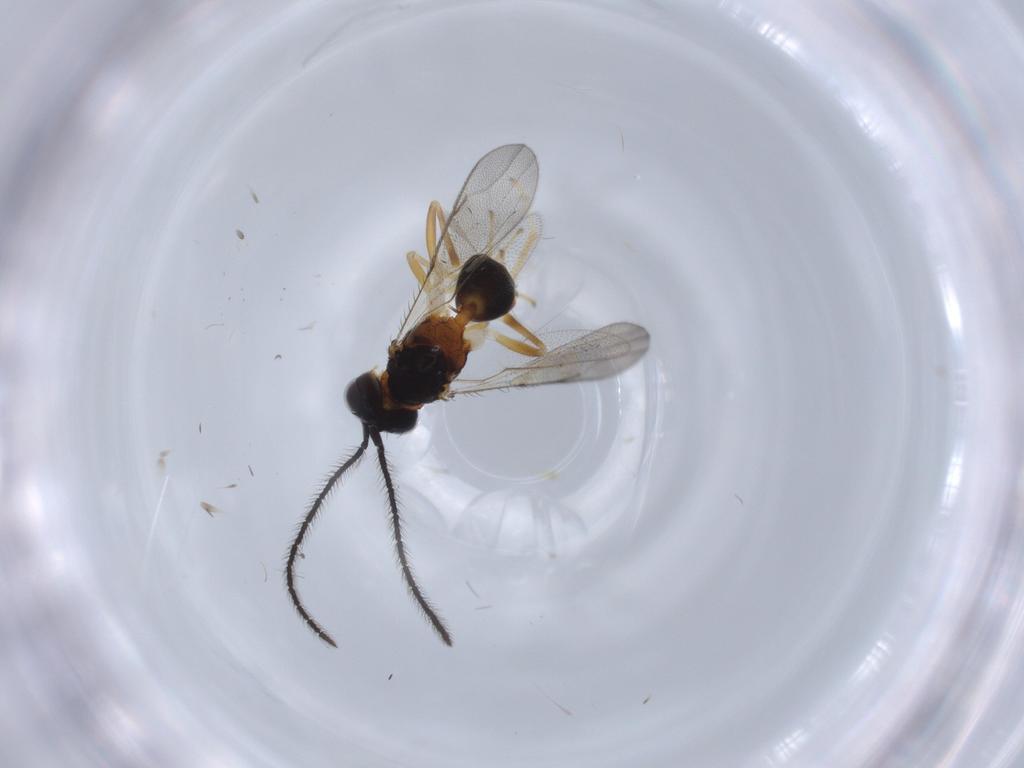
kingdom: Animalia
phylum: Arthropoda
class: Insecta
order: Hymenoptera
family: Diparidae
